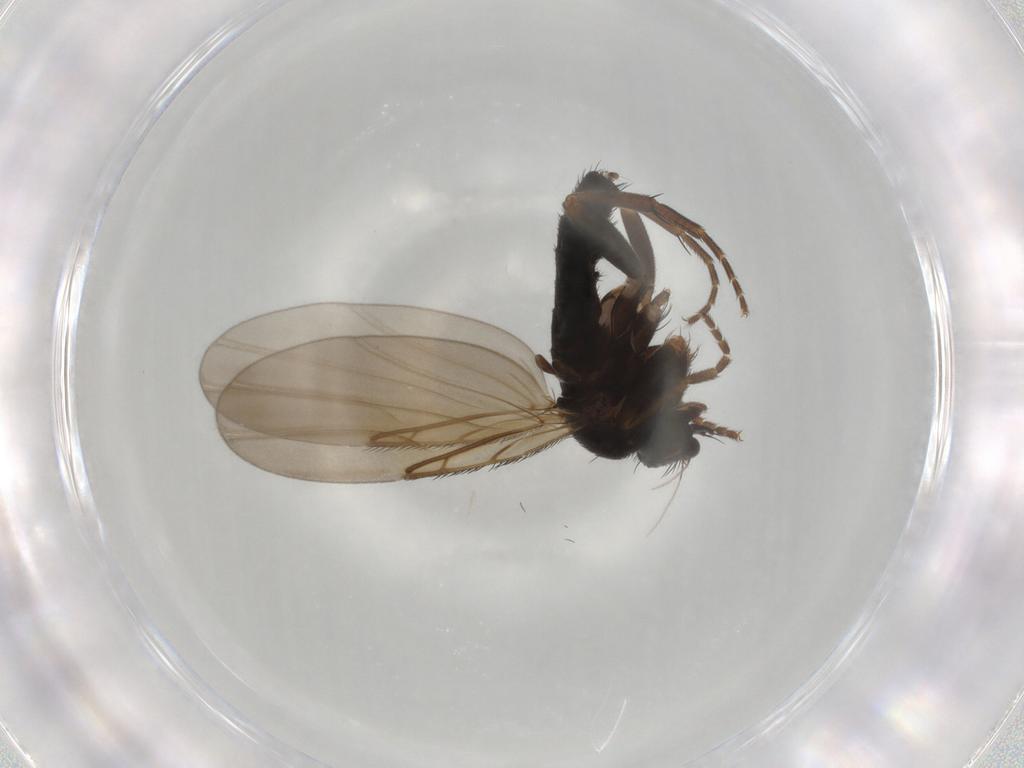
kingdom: Animalia
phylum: Arthropoda
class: Insecta
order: Diptera
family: Phoridae
